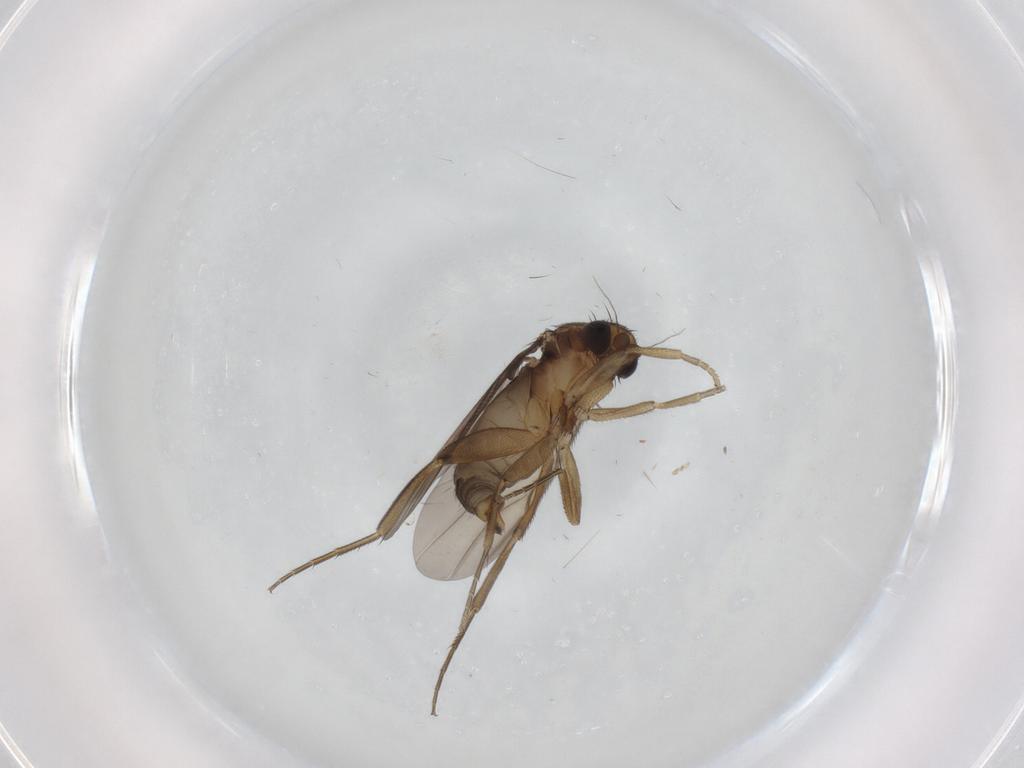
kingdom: Animalia
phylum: Arthropoda
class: Insecta
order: Diptera
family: Phoridae
